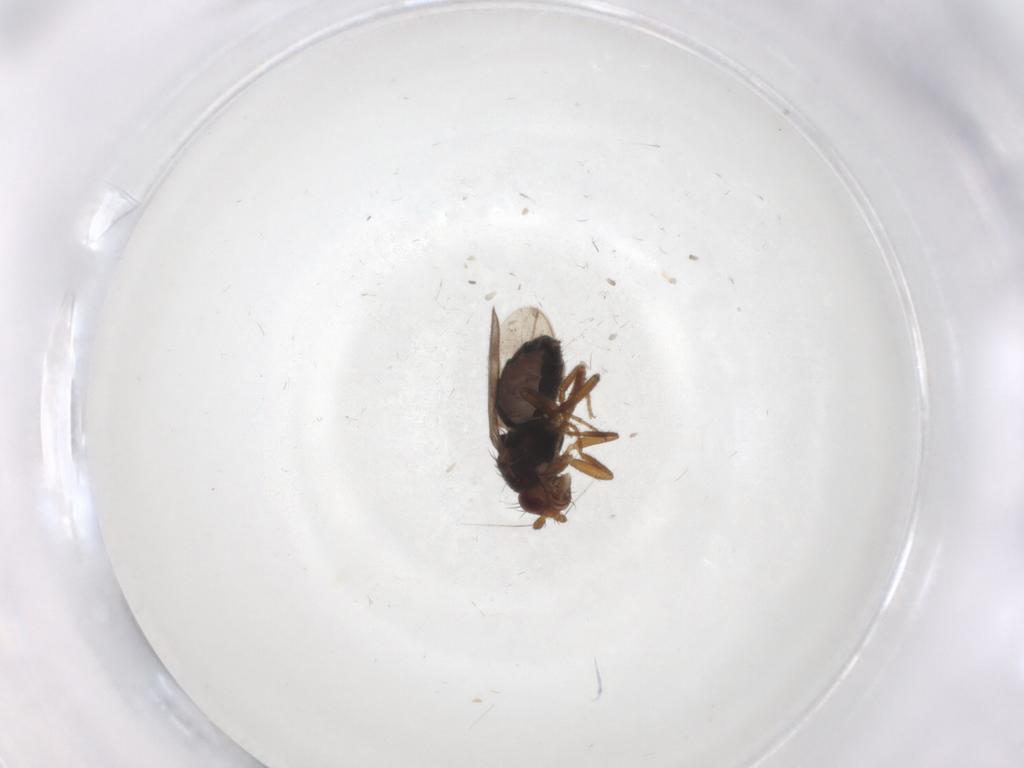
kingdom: Animalia
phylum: Arthropoda
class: Insecta
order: Diptera
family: Sphaeroceridae
